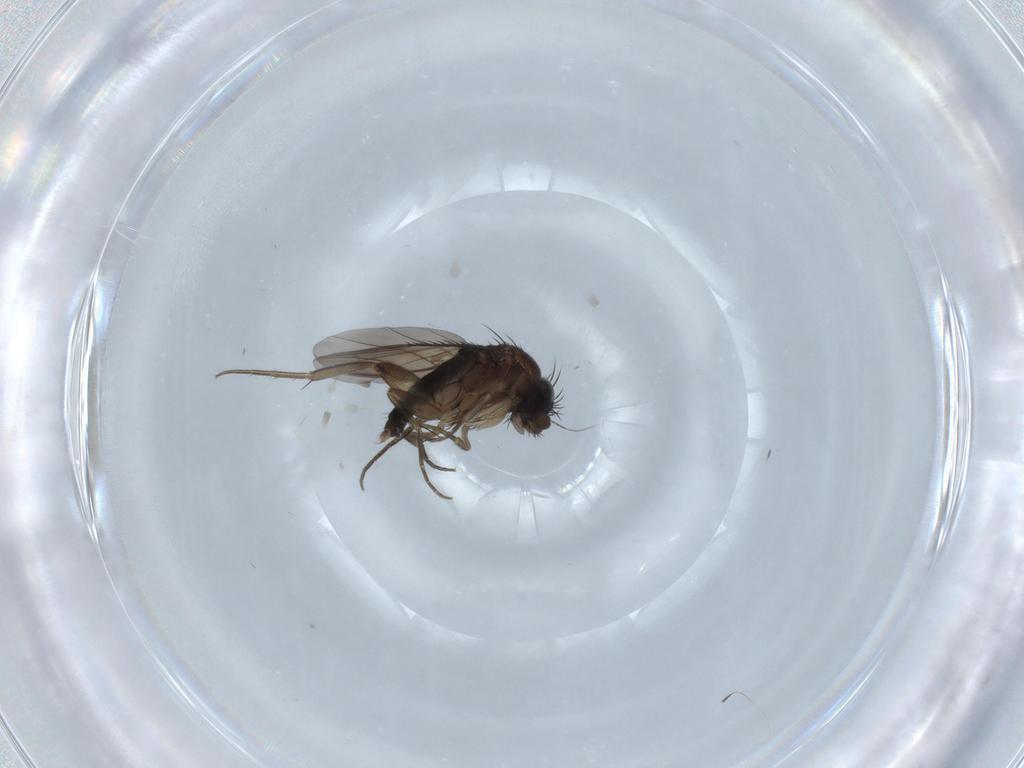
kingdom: Animalia
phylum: Arthropoda
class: Insecta
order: Diptera
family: Phoridae
